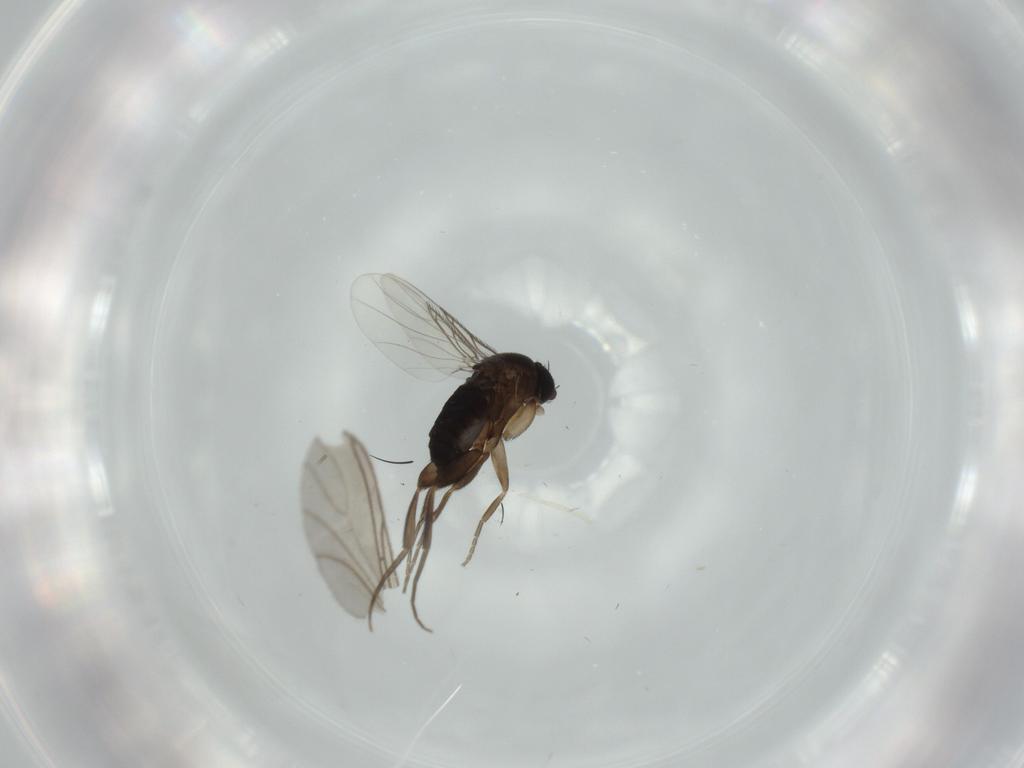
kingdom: Animalia
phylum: Arthropoda
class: Insecta
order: Diptera
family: Phoridae
